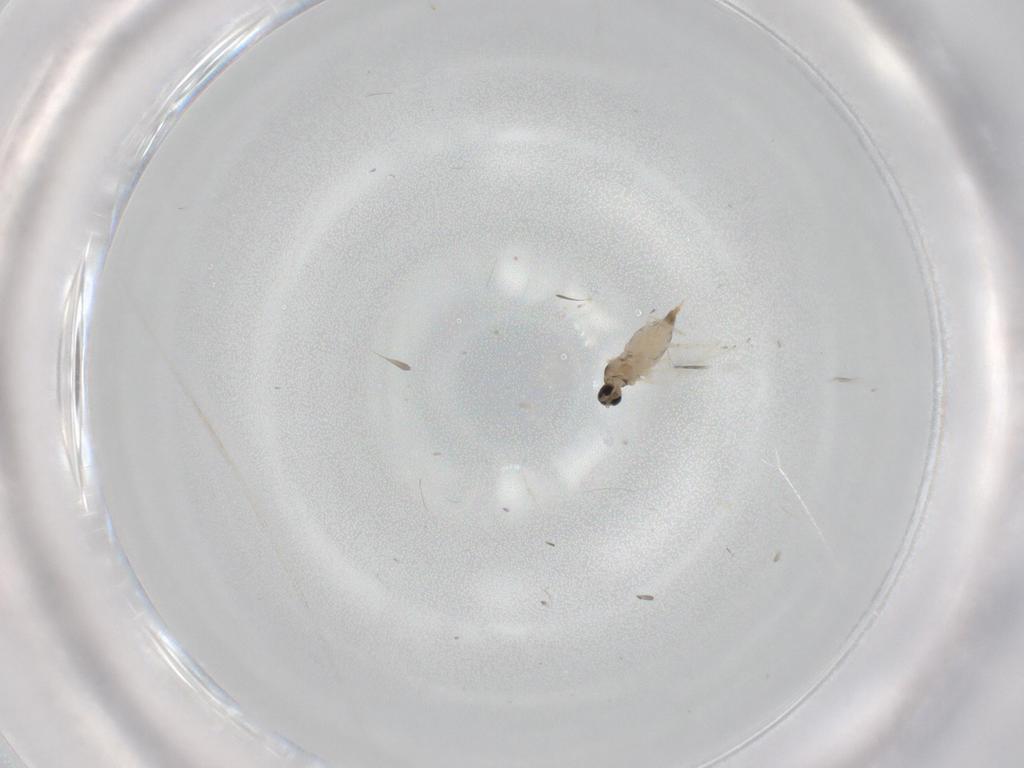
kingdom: Animalia
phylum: Arthropoda
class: Insecta
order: Diptera
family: Cecidomyiidae
